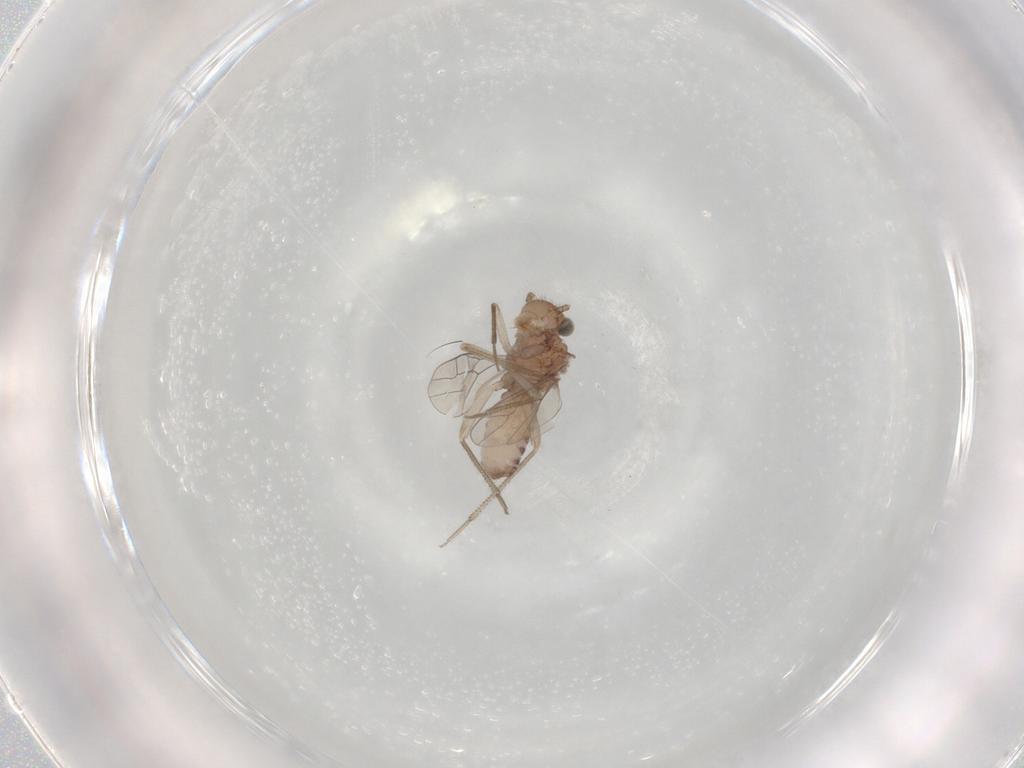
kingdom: Animalia
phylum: Arthropoda
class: Insecta
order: Psocodea
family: Caeciliusidae
